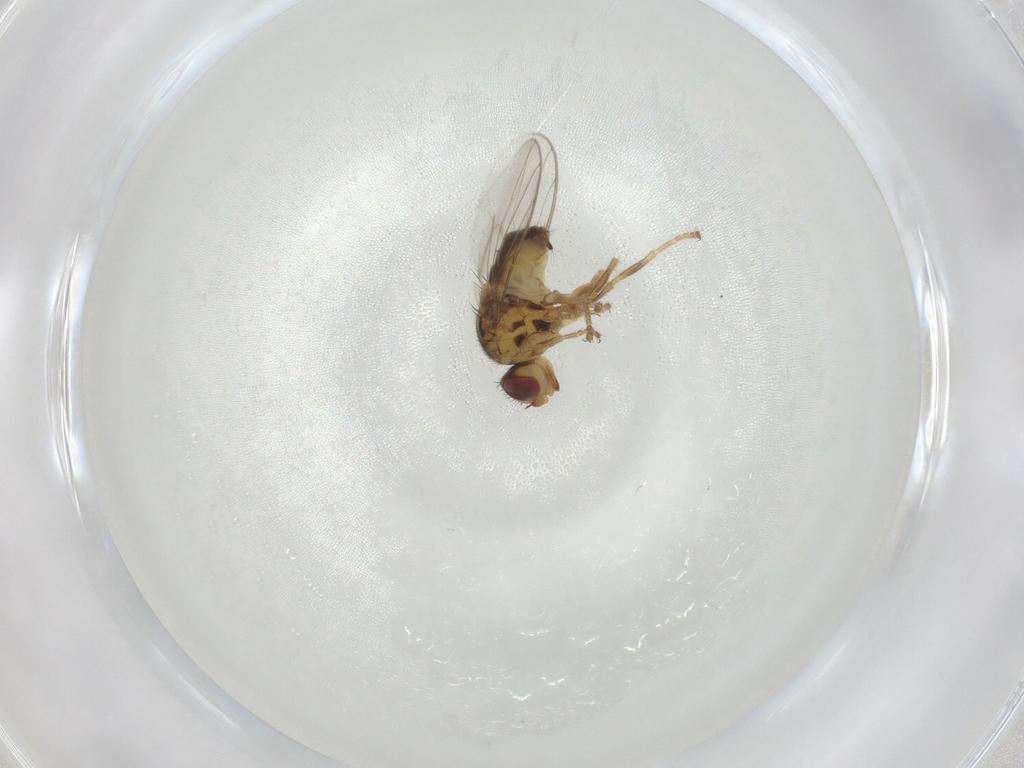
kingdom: Animalia
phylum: Arthropoda
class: Insecta
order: Diptera
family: Chloropidae
